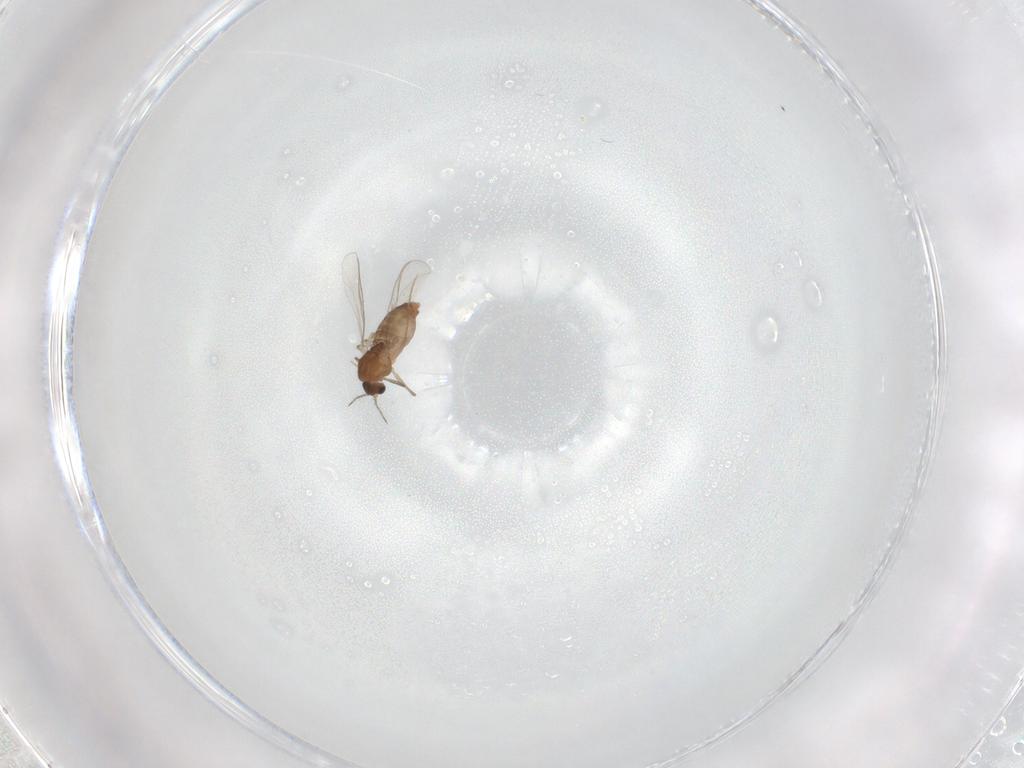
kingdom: Animalia
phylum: Arthropoda
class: Insecta
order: Diptera
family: Chironomidae
